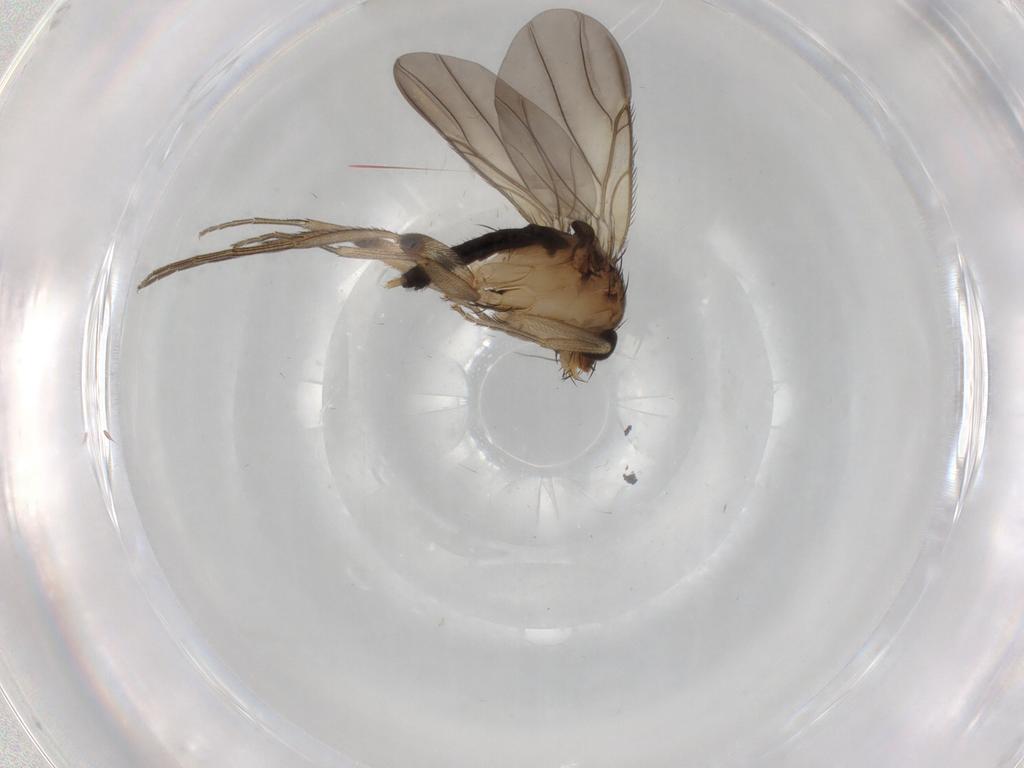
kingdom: Animalia
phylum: Arthropoda
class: Insecta
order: Diptera
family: Phoridae
